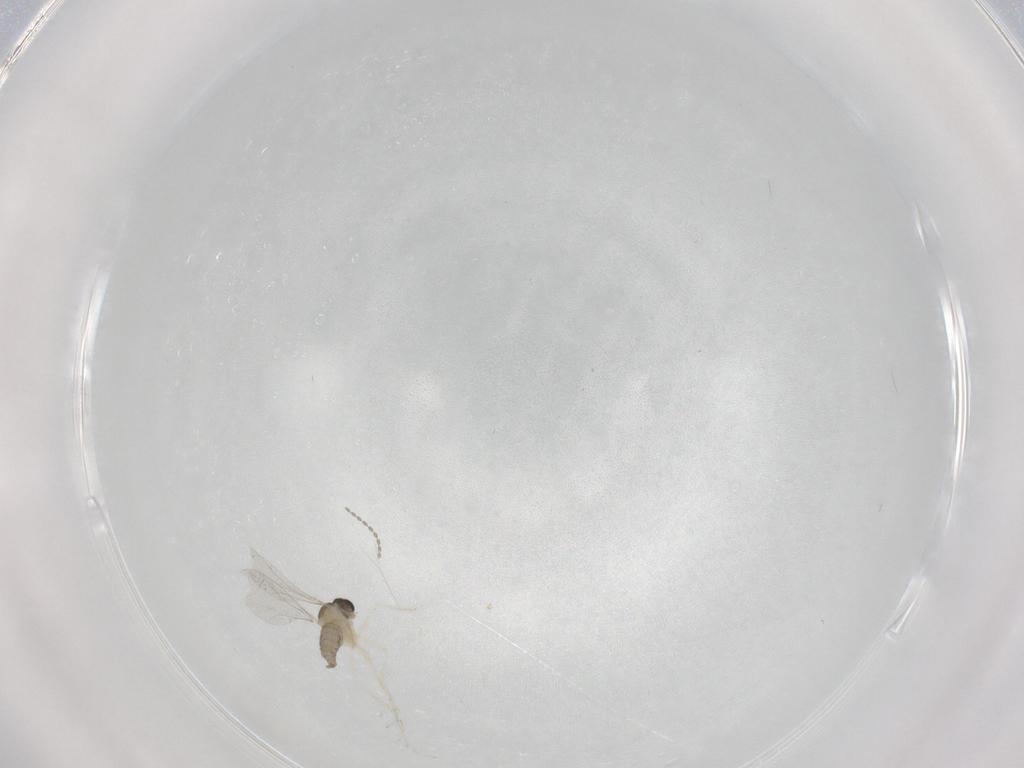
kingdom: Animalia
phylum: Arthropoda
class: Insecta
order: Diptera
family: Cecidomyiidae
